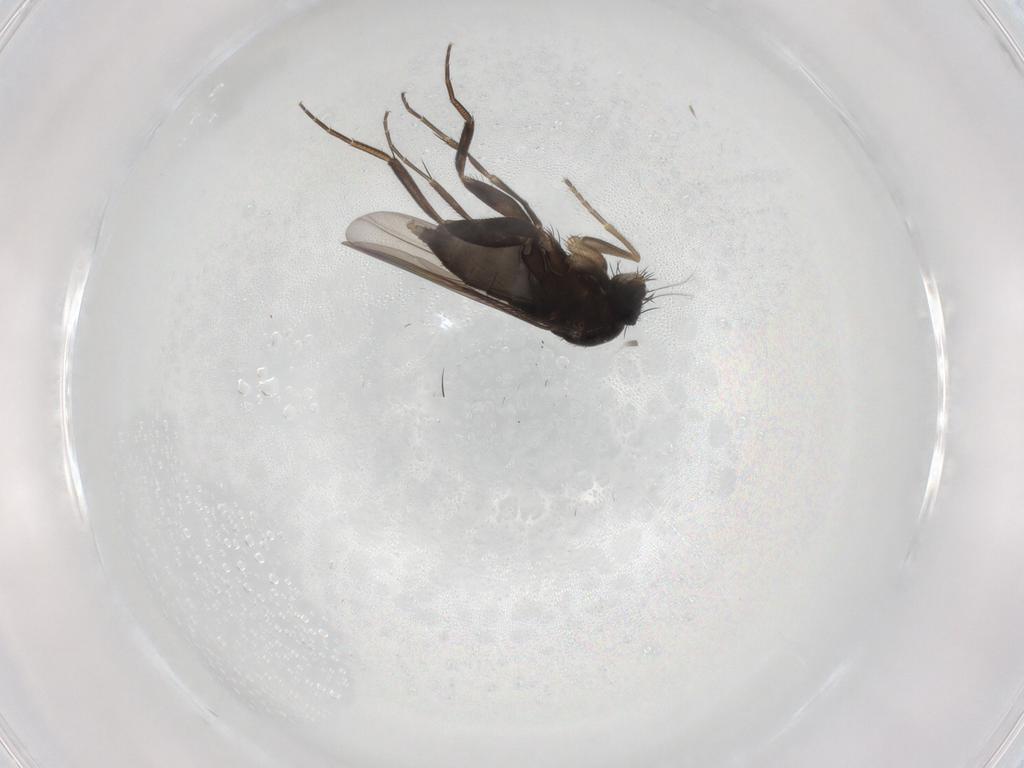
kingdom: Animalia
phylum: Arthropoda
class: Insecta
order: Diptera
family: Phoridae
